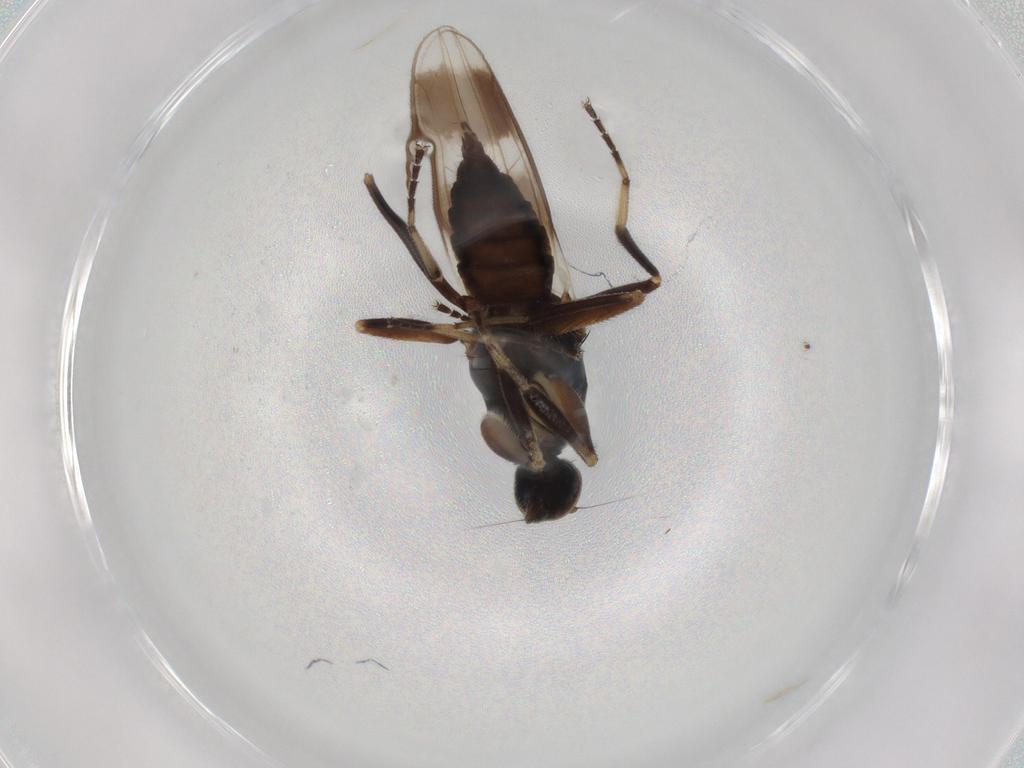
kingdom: Animalia
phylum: Arthropoda
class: Insecta
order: Diptera
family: Hybotidae
